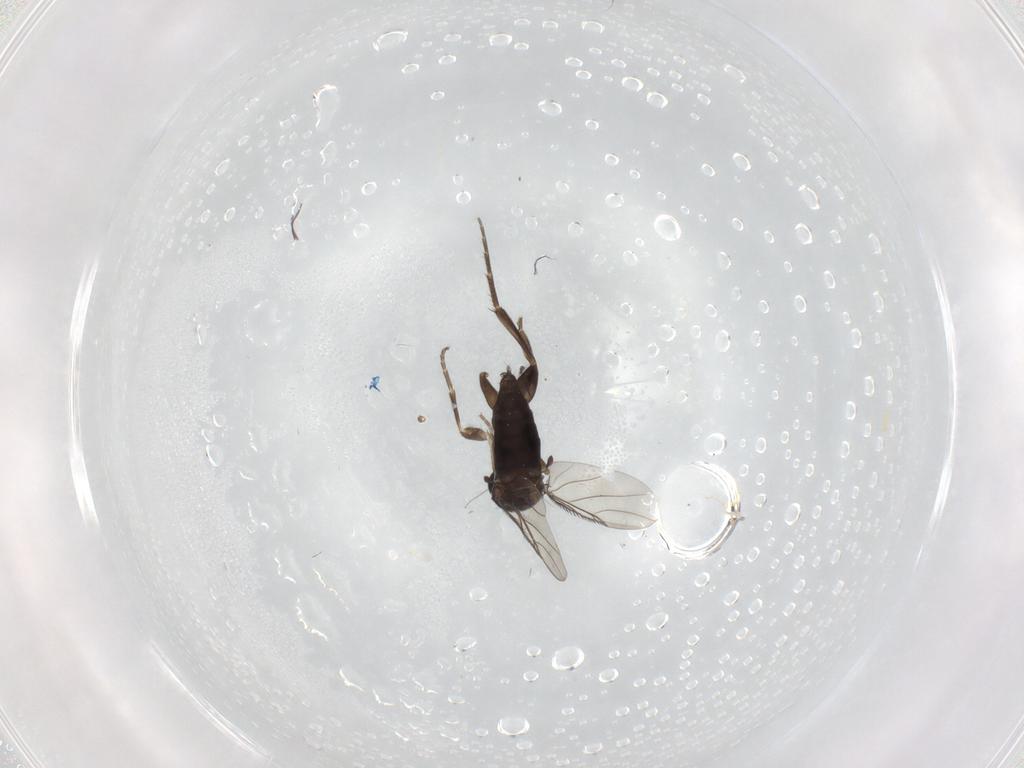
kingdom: Animalia
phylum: Arthropoda
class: Insecta
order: Diptera
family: Phoridae
